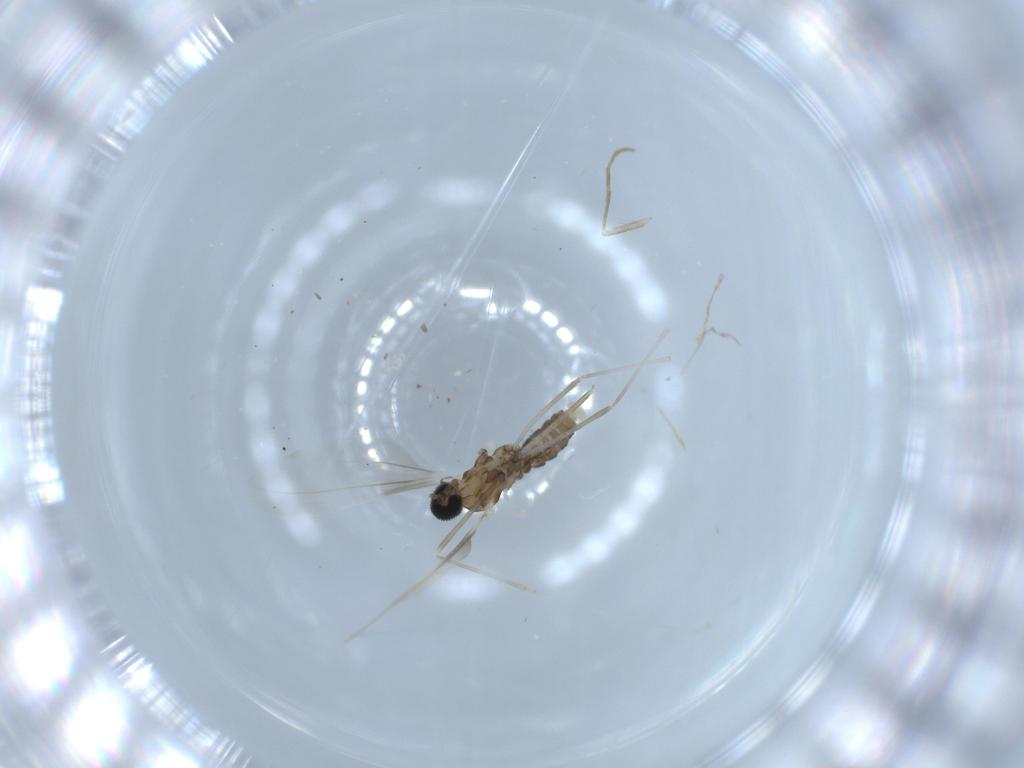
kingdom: Animalia
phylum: Arthropoda
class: Insecta
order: Diptera
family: Psychodidae
